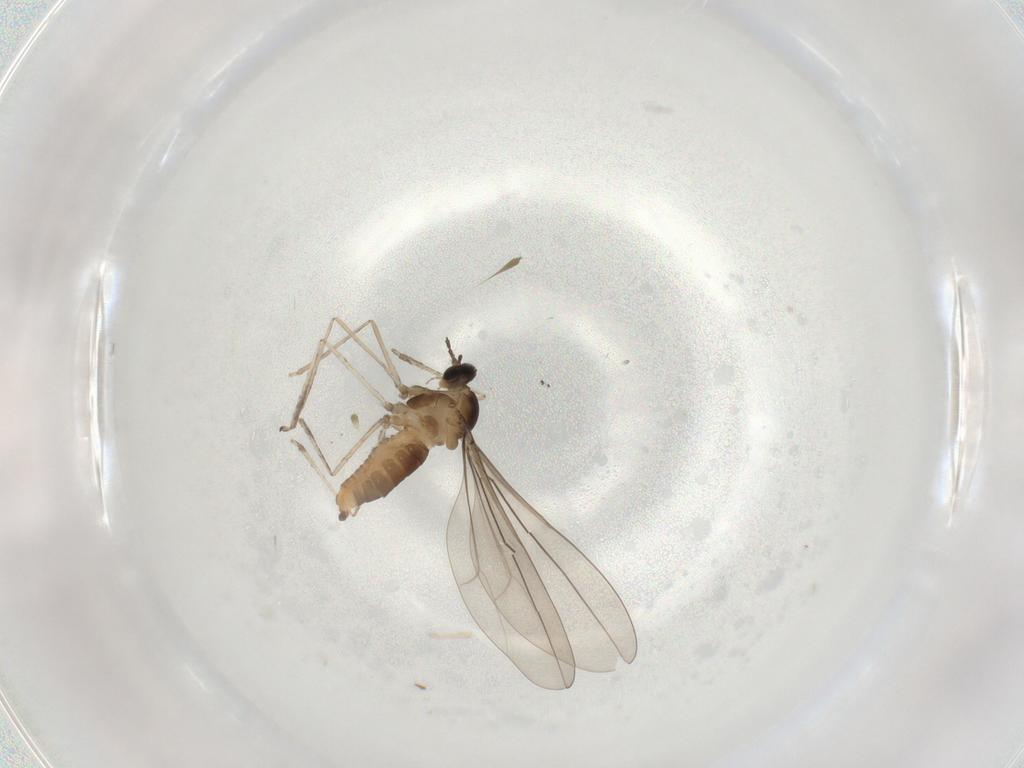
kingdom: Animalia
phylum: Arthropoda
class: Insecta
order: Diptera
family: Cecidomyiidae
